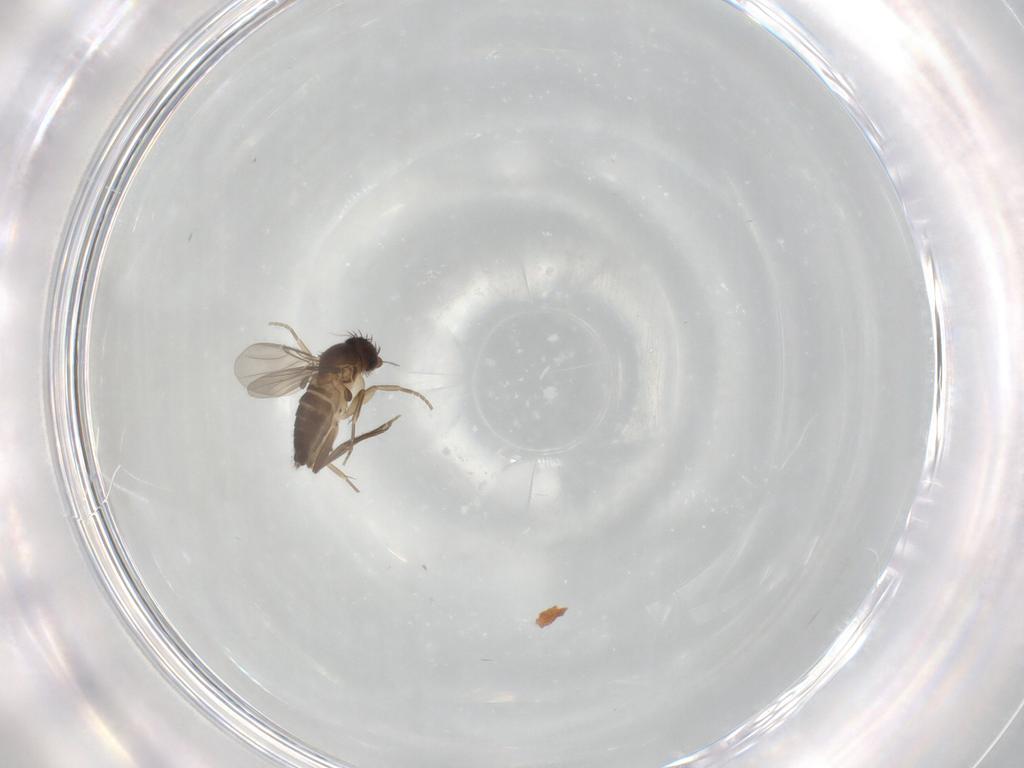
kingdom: Animalia
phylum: Arthropoda
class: Insecta
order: Diptera
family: Phoridae
